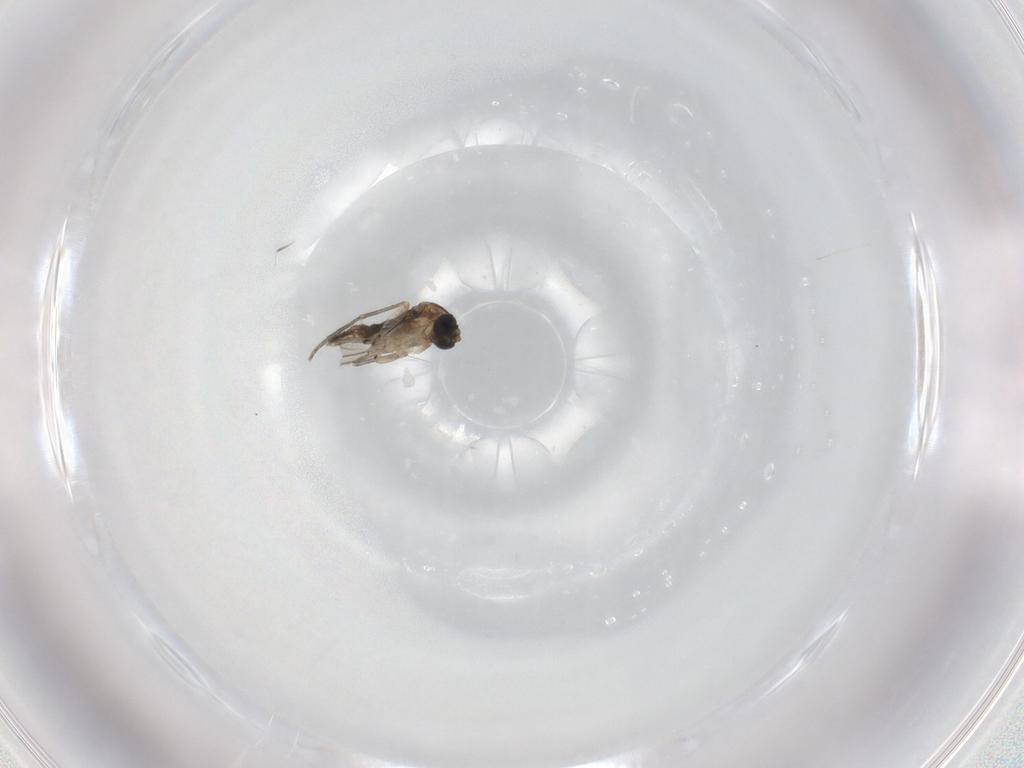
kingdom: Animalia
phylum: Arthropoda
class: Insecta
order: Diptera
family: Sciaridae
